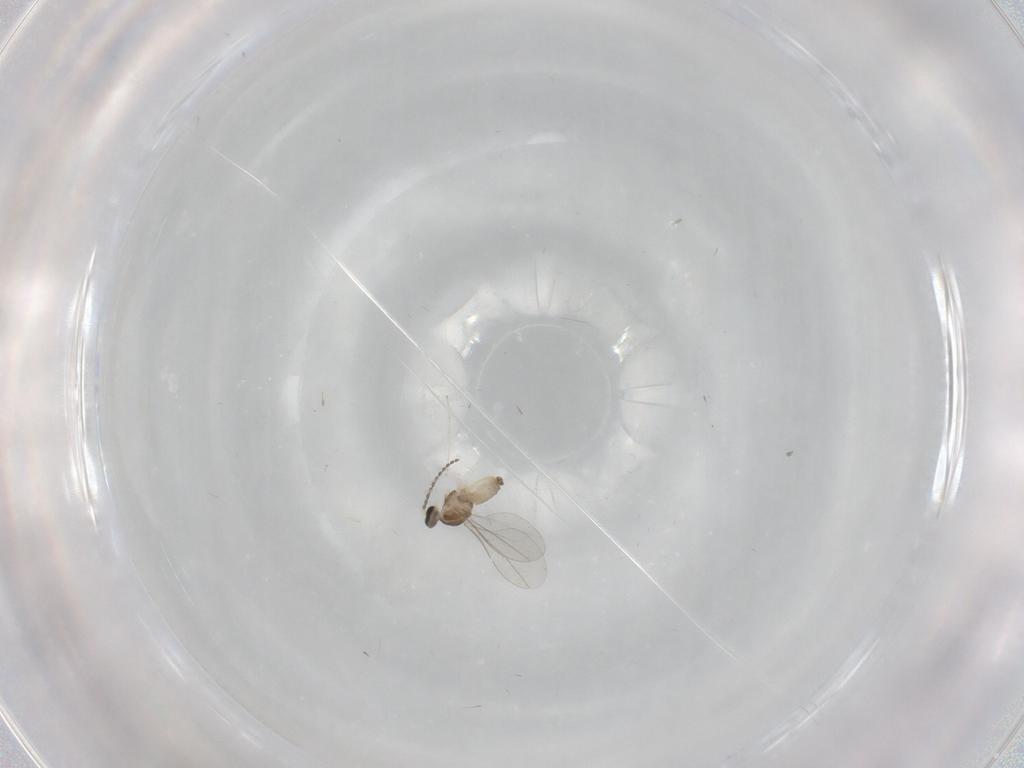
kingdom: Animalia
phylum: Arthropoda
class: Insecta
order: Diptera
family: Cecidomyiidae
